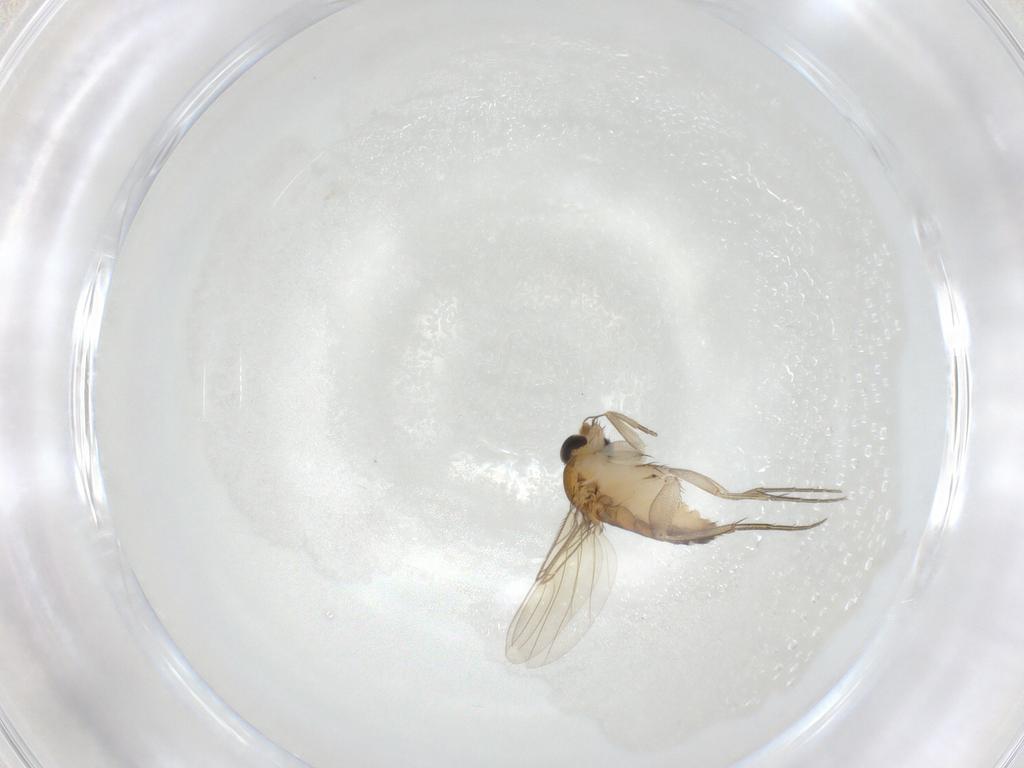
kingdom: Animalia
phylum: Arthropoda
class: Insecta
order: Diptera
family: Phoridae
